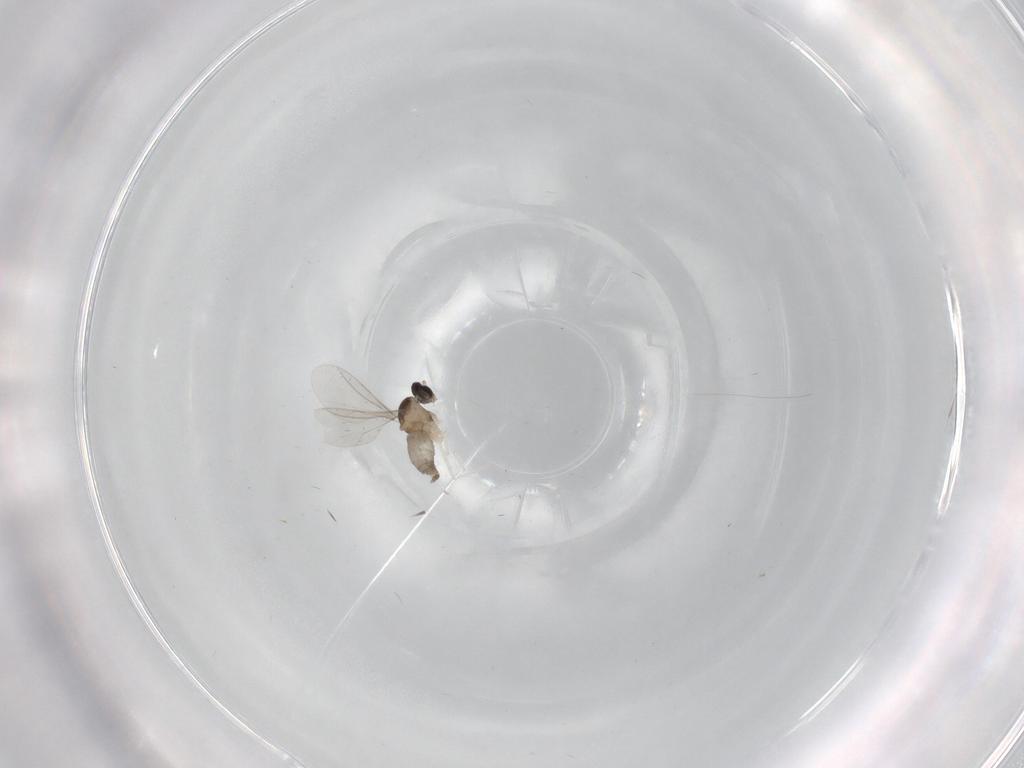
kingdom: Animalia
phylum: Arthropoda
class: Insecta
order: Diptera
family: Cecidomyiidae
